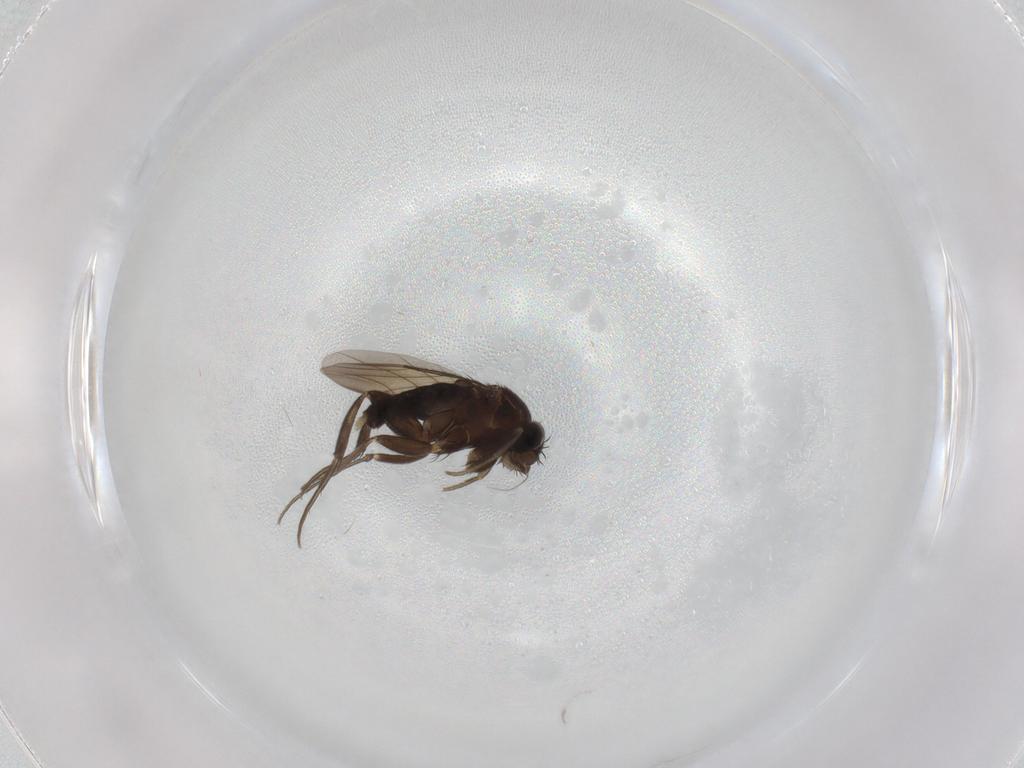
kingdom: Animalia
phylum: Arthropoda
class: Insecta
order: Diptera
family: Phoridae
